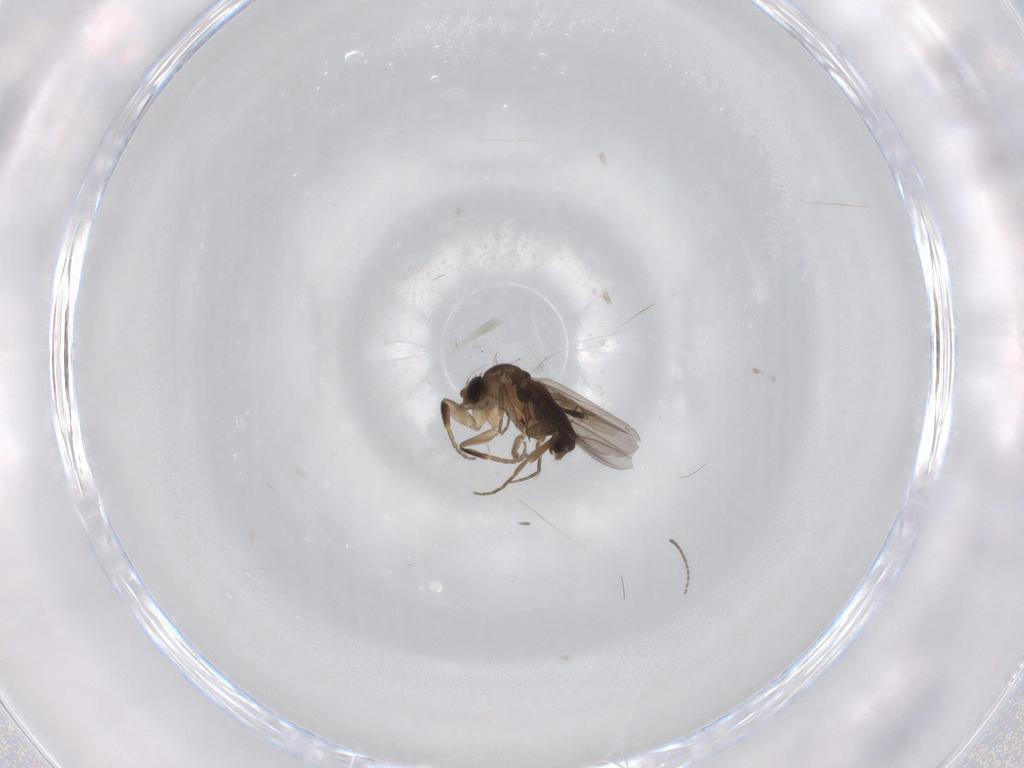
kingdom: Animalia
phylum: Arthropoda
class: Insecta
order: Diptera
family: Phoridae
